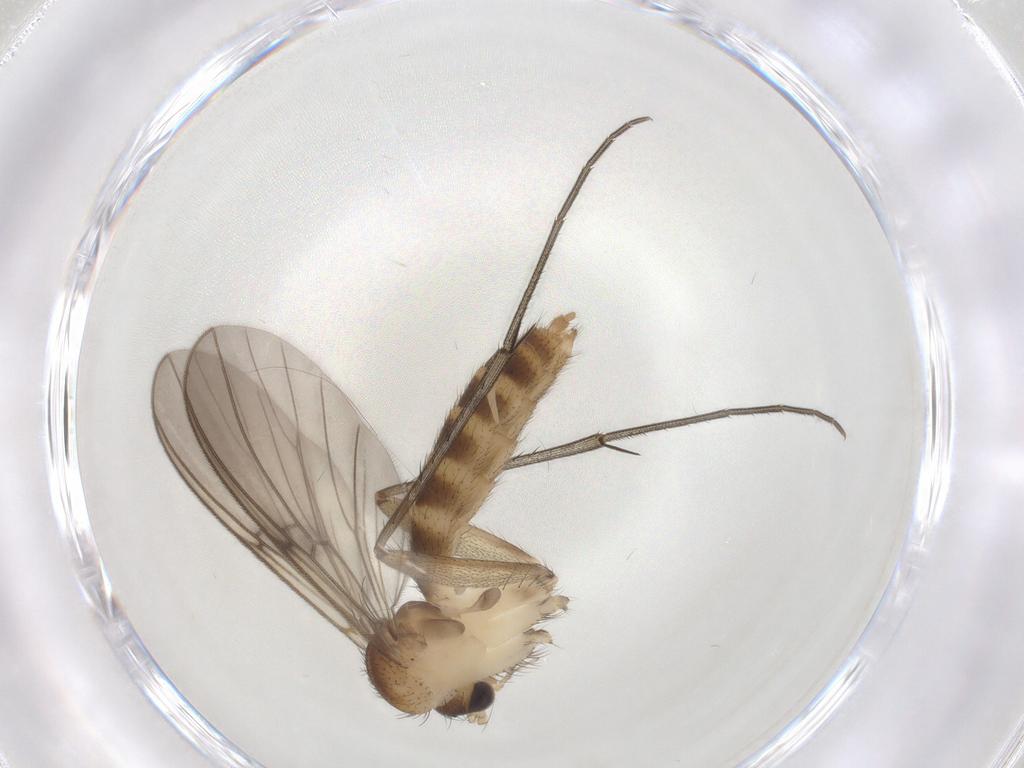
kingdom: Animalia
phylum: Arthropoda
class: Insecta
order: Diptera
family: Mycetophilidae
